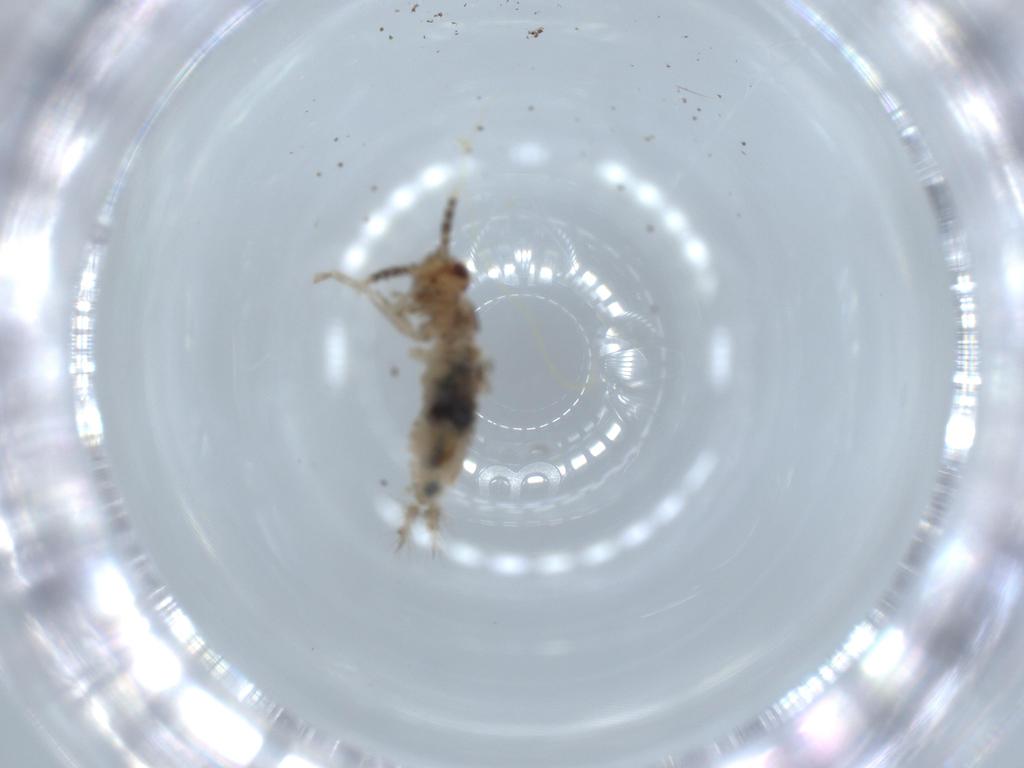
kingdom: Animalia
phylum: Arthropoda
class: Insecta
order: Orthoptera
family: Trigonidiidae
